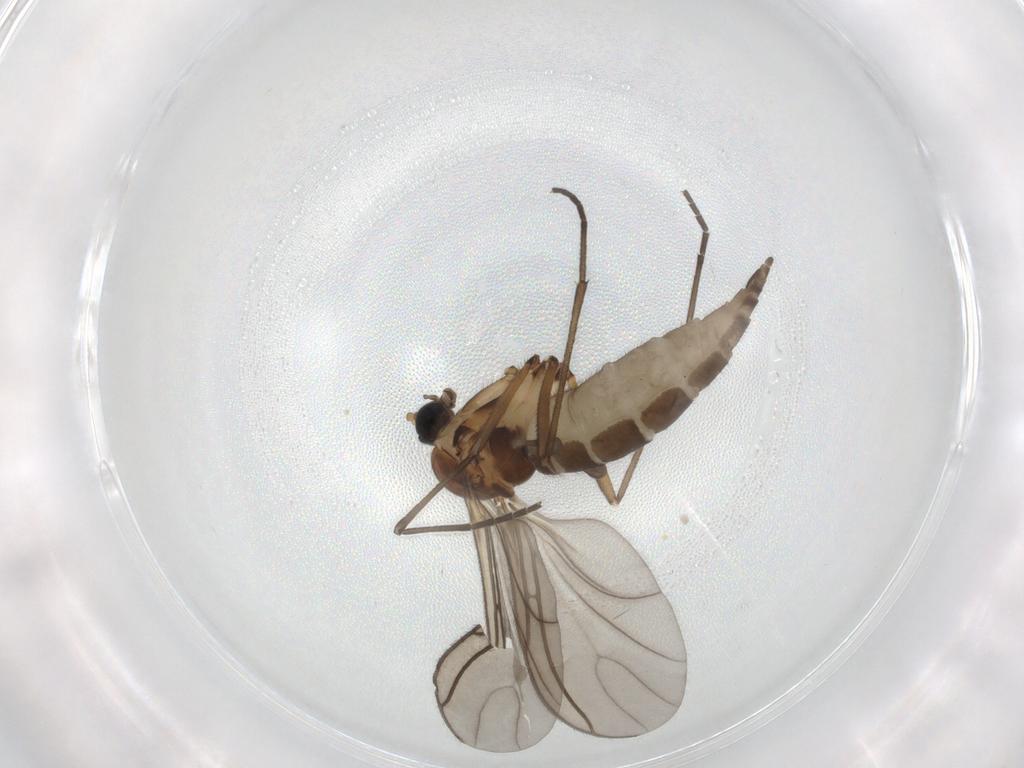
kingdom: Animalia
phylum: Arthropoda
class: Insecta
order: Diptera
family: Sciaridae
